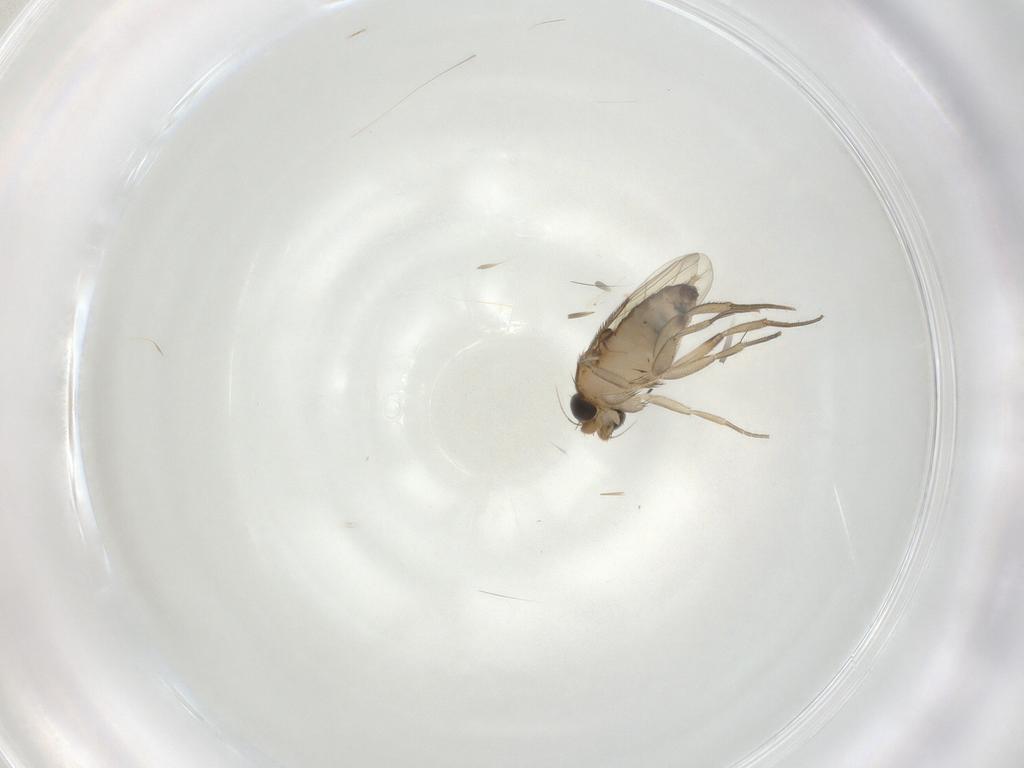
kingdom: Animalia
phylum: Arthropoda
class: Insecta
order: Diptera
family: Phoridae
